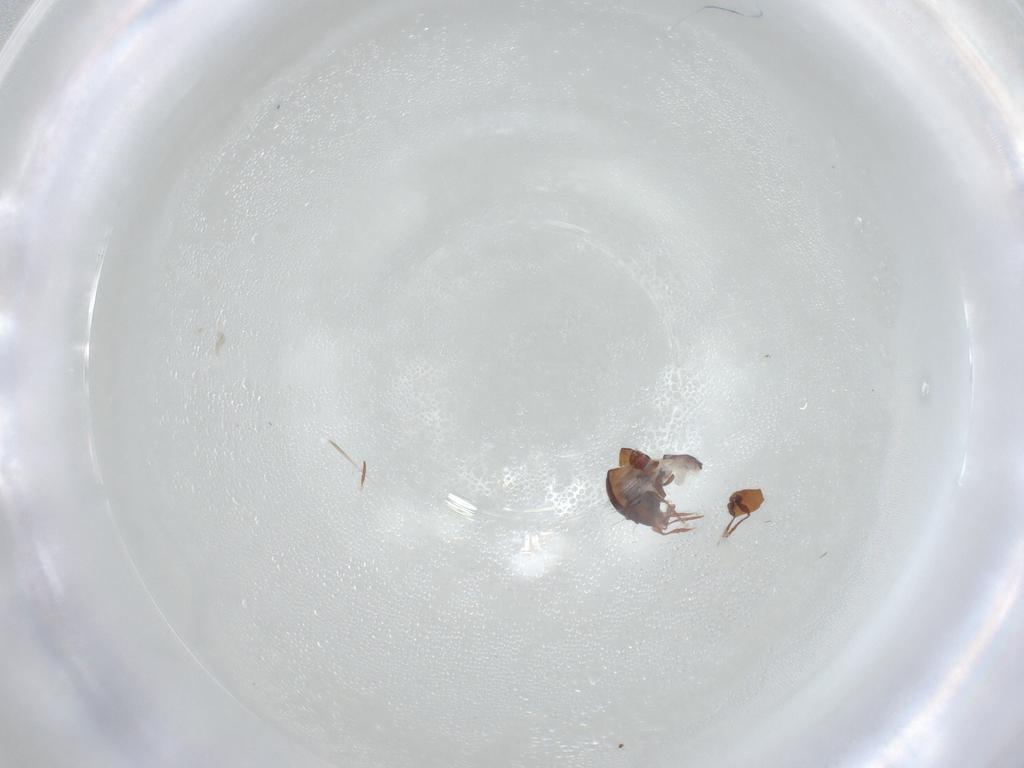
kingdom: Animalia
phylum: Arthropoda
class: Arachnida
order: Sarcoptiformes
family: Caloppiidae
